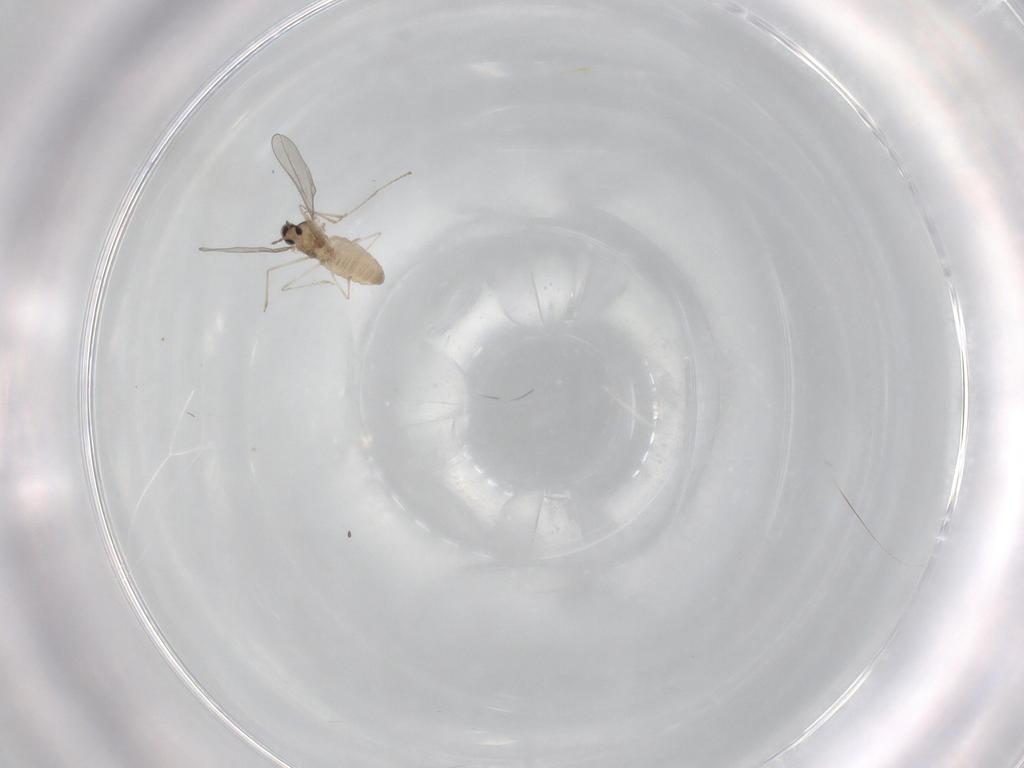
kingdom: Animalia
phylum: Arthropoda
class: Insecta
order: Diptera
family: Cecidomyiidae
